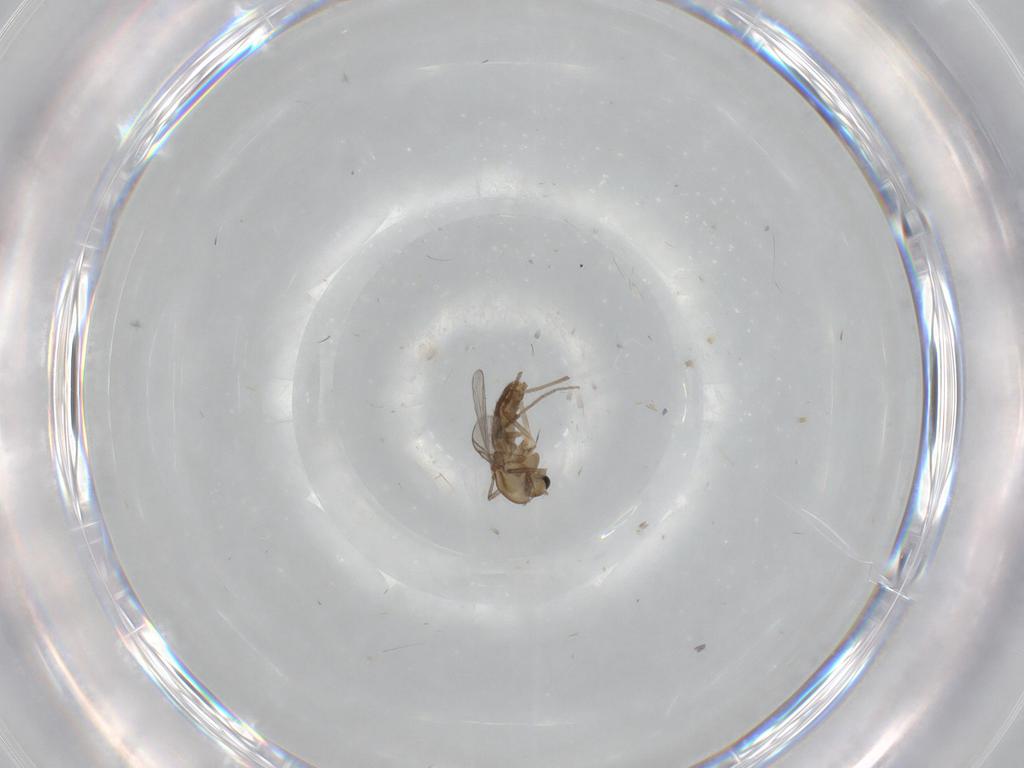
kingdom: Animalia
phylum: Arthropoda
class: Insecta
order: Diptera
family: Chironomidae
